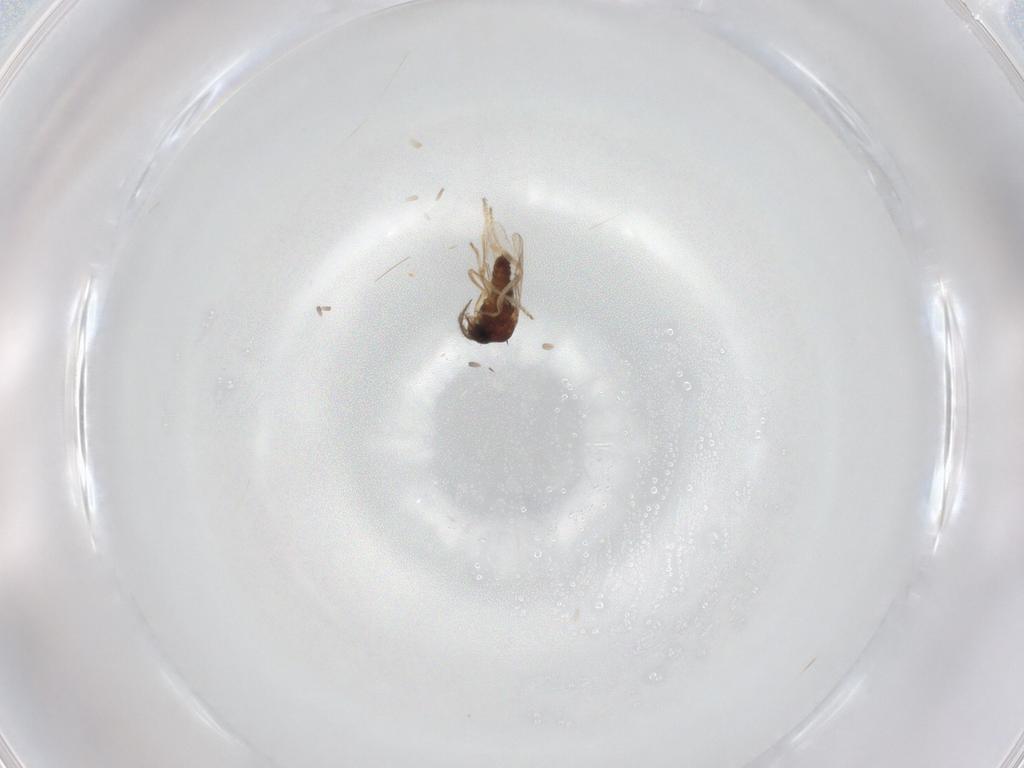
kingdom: Animalia
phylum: Arthropoda
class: Insecta
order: Diptera
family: Ceratopogonidae
